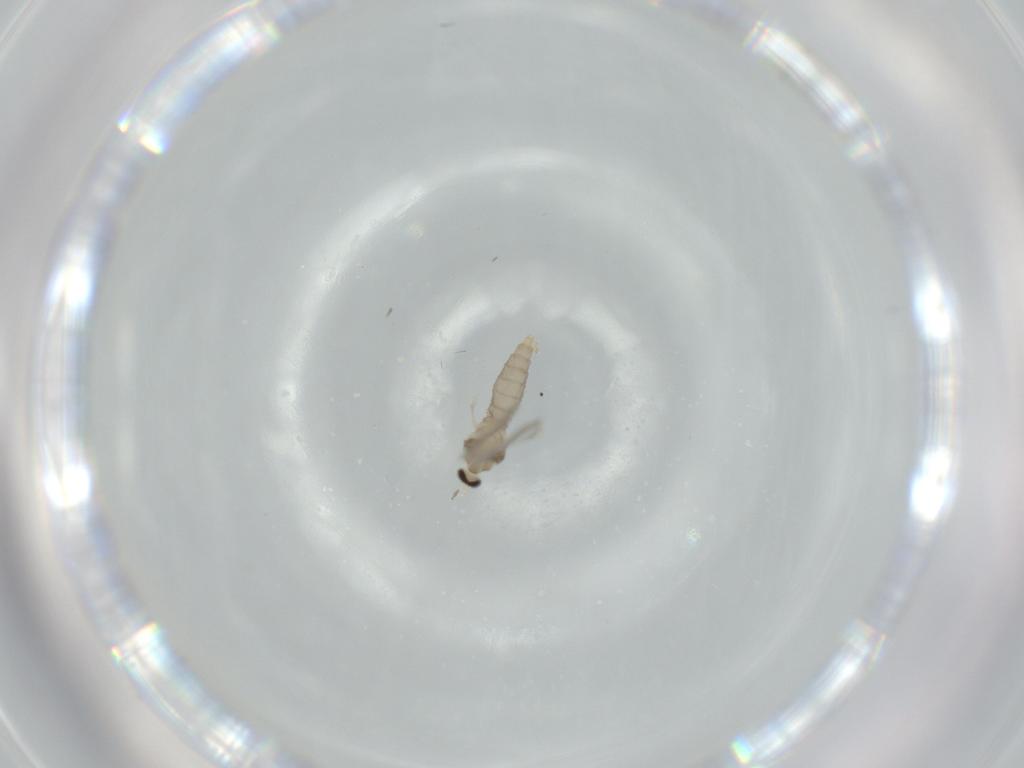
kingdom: Animalia
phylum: Arthropoda
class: Insecta
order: Diptera
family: Cecidomyiidae
